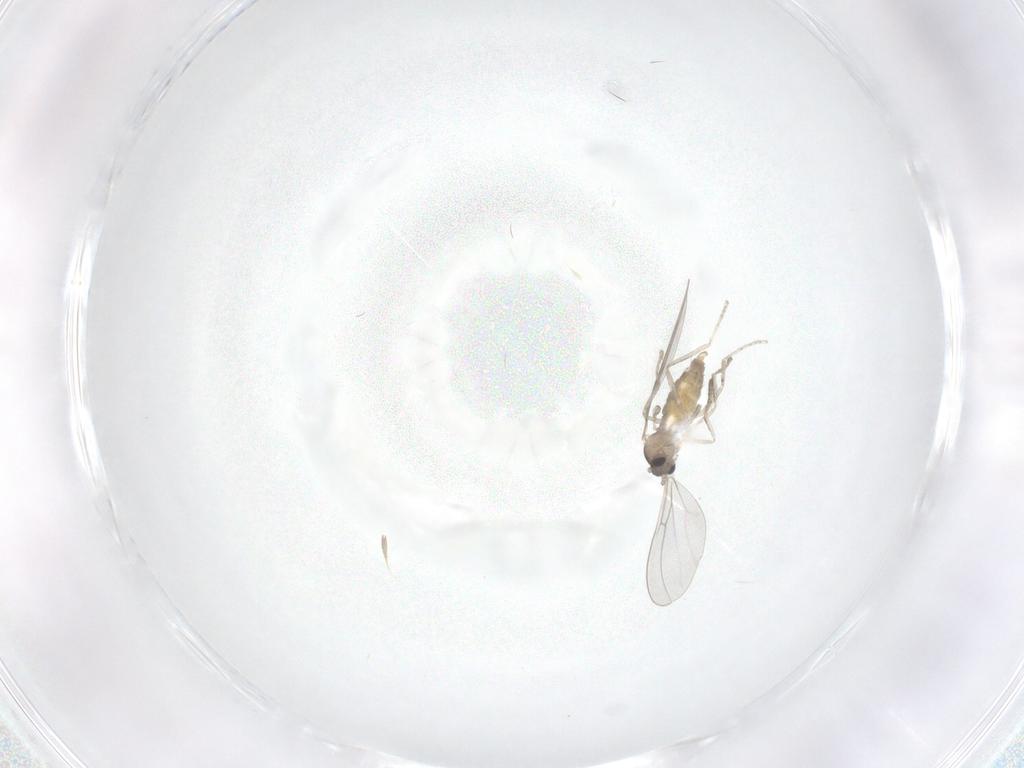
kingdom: Animalia
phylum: Arthropoda
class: Insecta
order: Diptera
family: Cecidomyiidae
